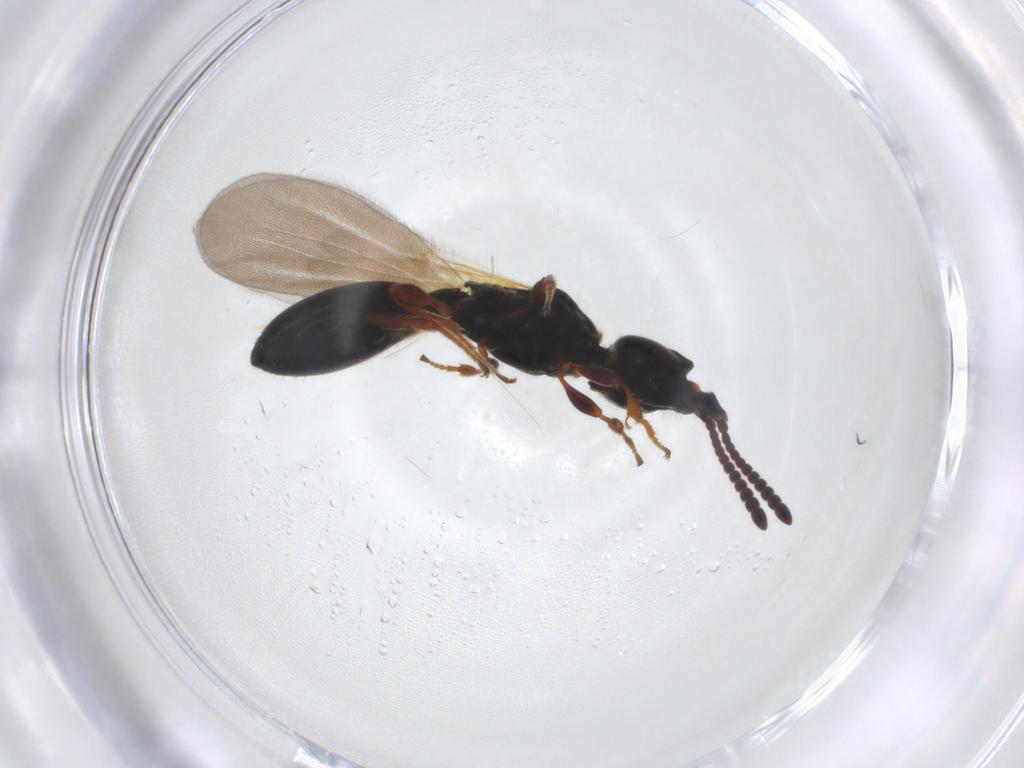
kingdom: Animalia
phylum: Arthropoda
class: Insecta
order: Hymenoptera
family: Diapriidae
